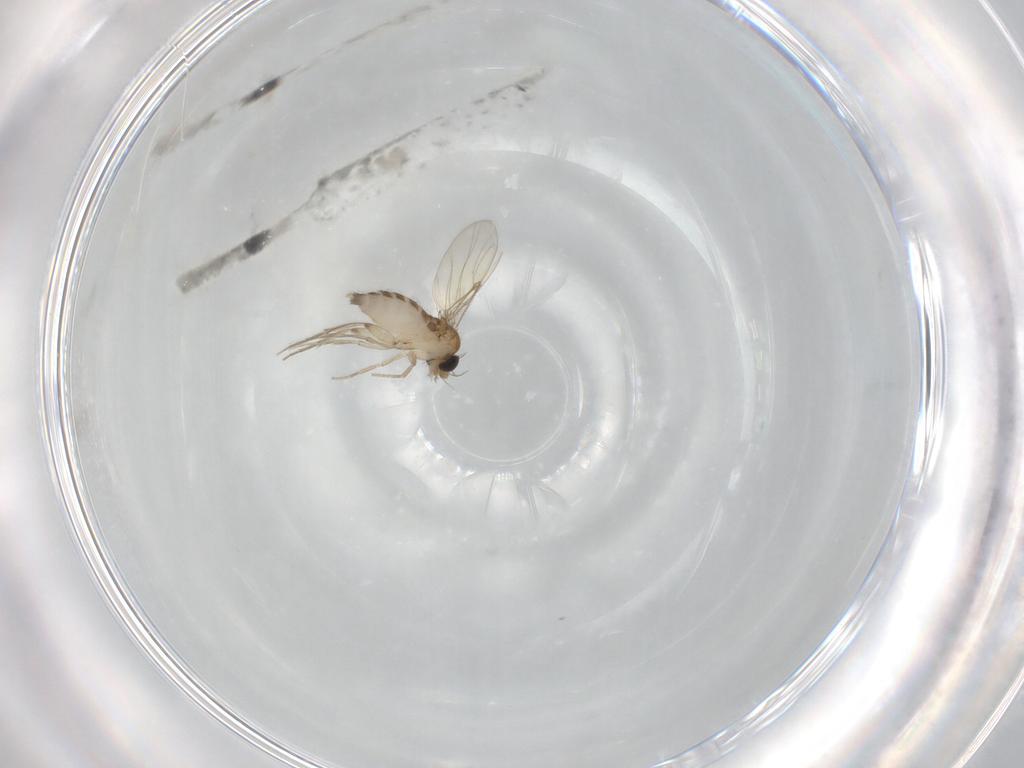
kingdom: Animalia
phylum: Arthropoda
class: Insecta
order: Diptera
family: Phoridae
